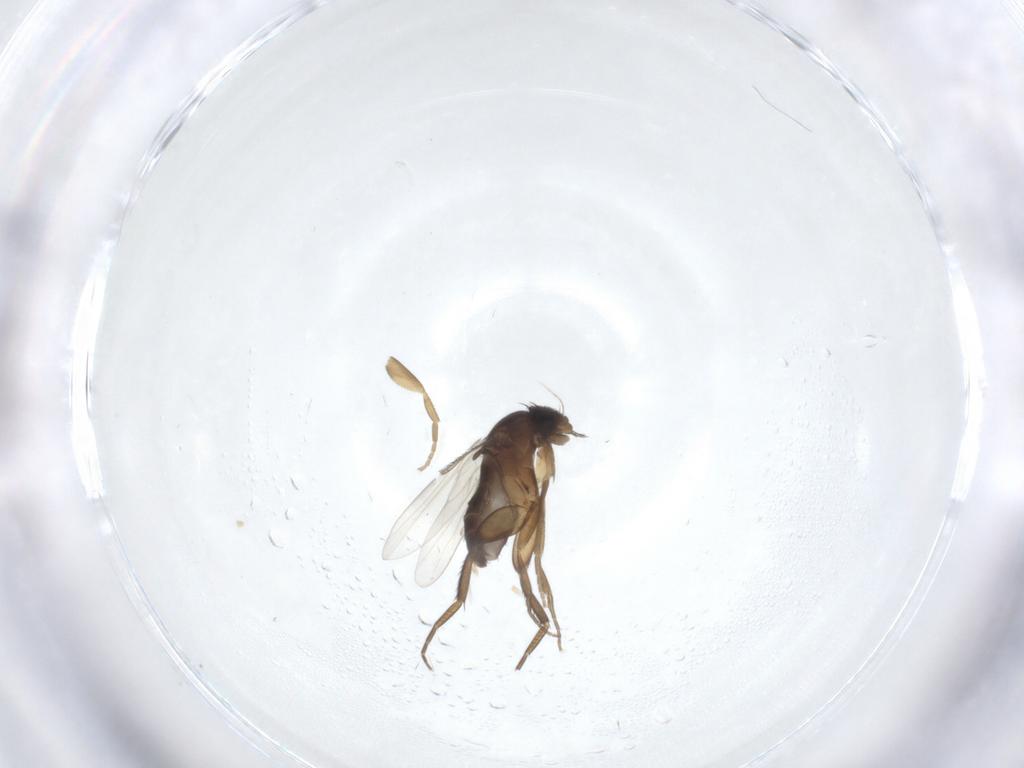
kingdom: Animalia
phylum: Arthropoda
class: Insecta
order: Diptera
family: Phoridae
